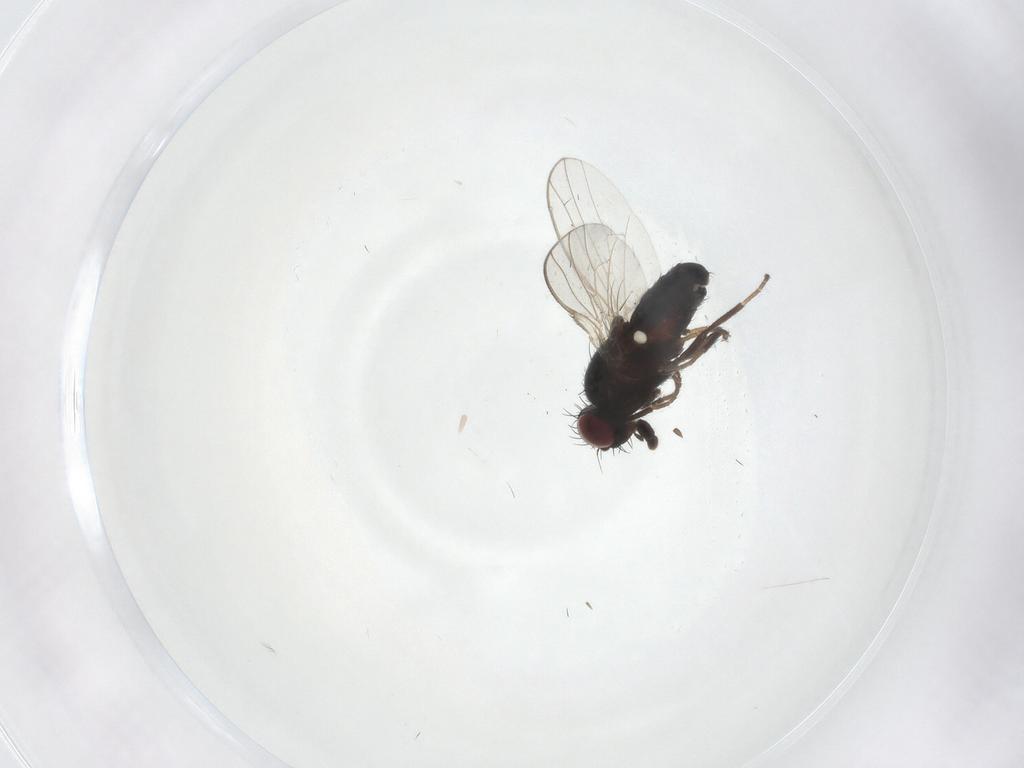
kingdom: Animalia
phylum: Arthropoda
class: Insecta
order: Diptera
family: Carnidae
